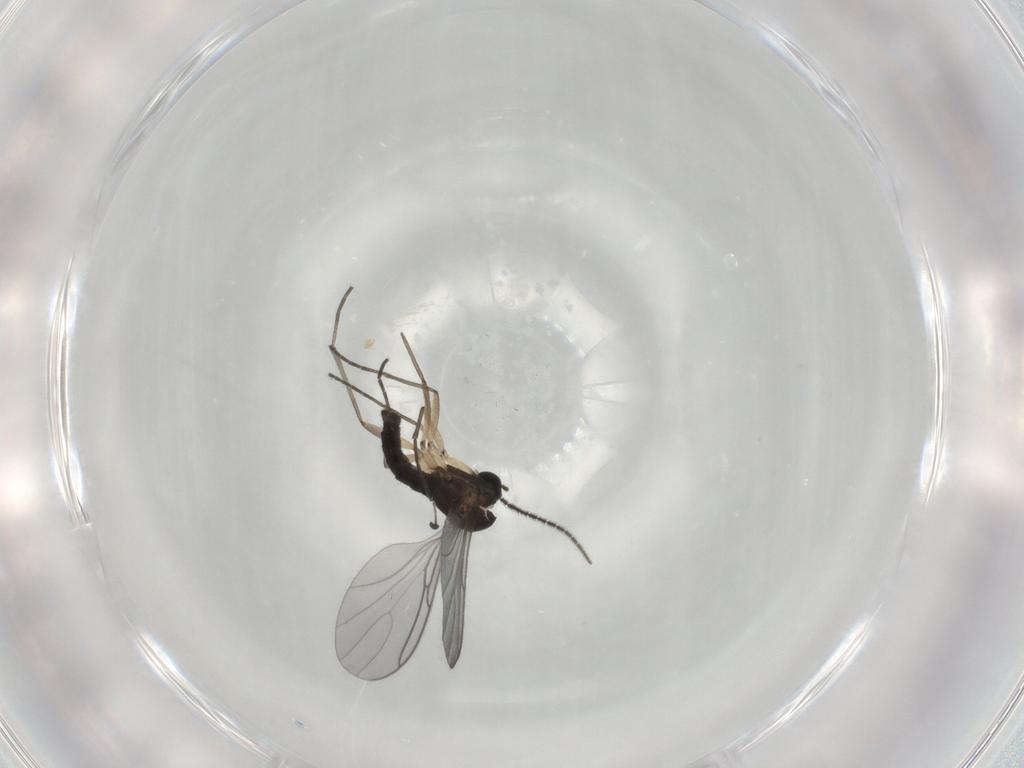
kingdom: Animalia
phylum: Arthropoda
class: Insecta
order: Diptera
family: Sciaridae
